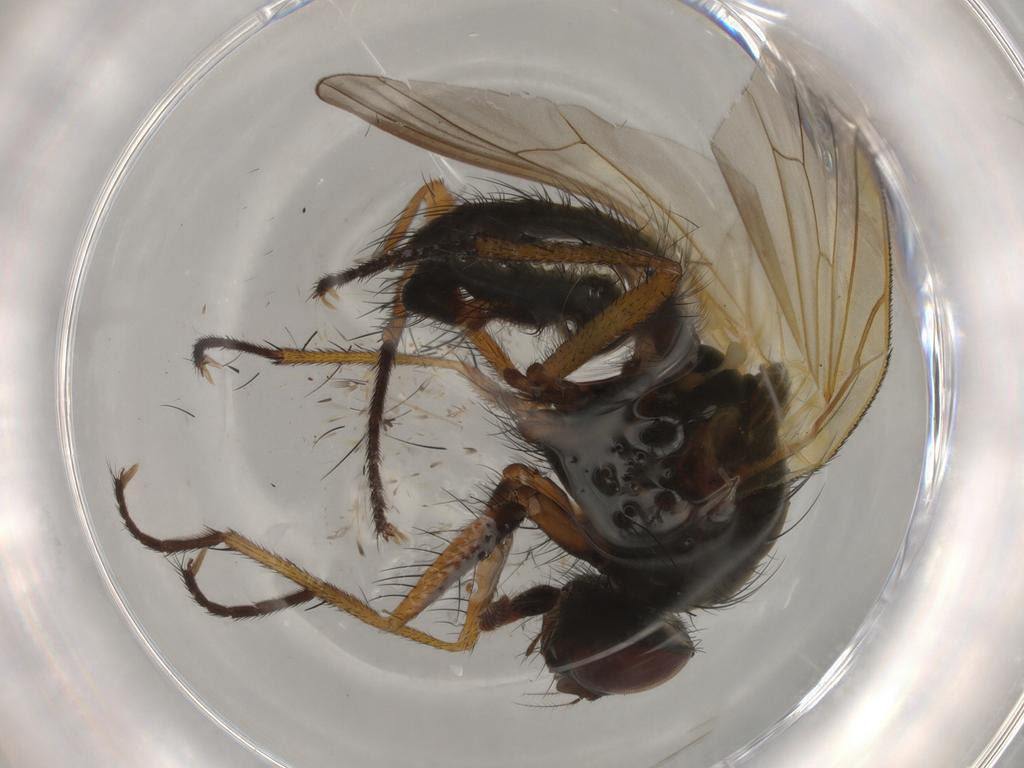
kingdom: Animalia
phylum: Arthropoda
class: Insecta
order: Diptera
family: Anthomyiidae
